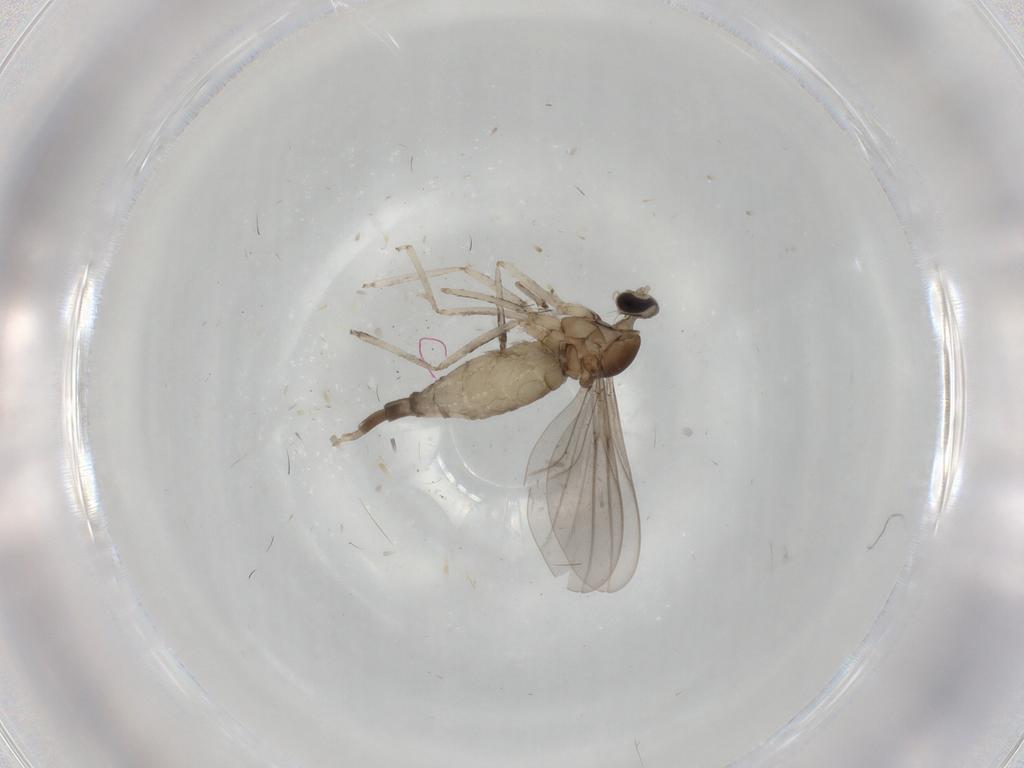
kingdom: Animalia
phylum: Arthropoda
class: Insecta
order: Diptera
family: Cecidomyiidae
